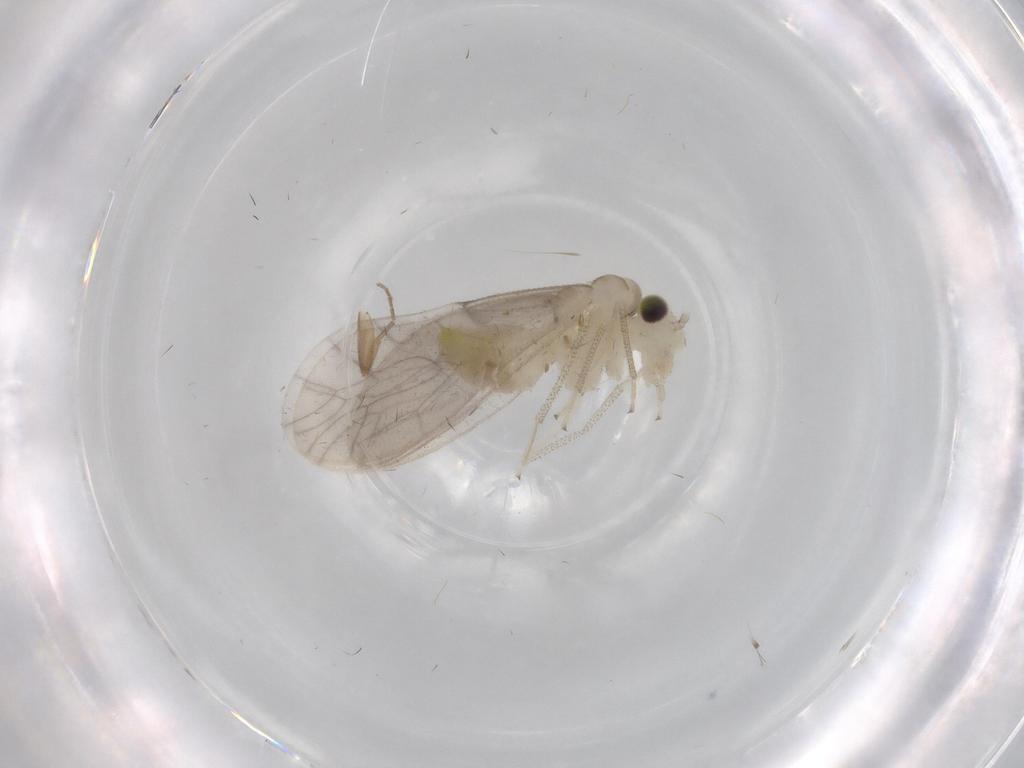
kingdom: Animalia
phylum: Arthropoda
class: Insecta
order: Psocodea
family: Caeciliusidae
